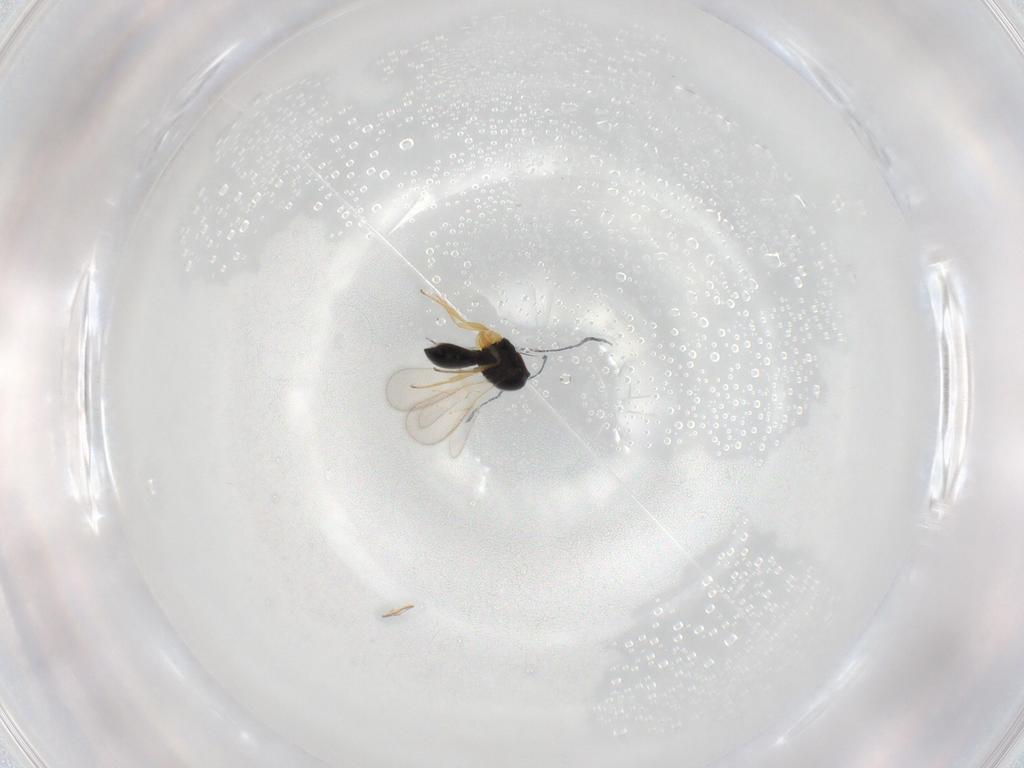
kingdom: Animalia
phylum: Arthropoda
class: Insecta
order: Hymenoptera
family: Scelionidae
